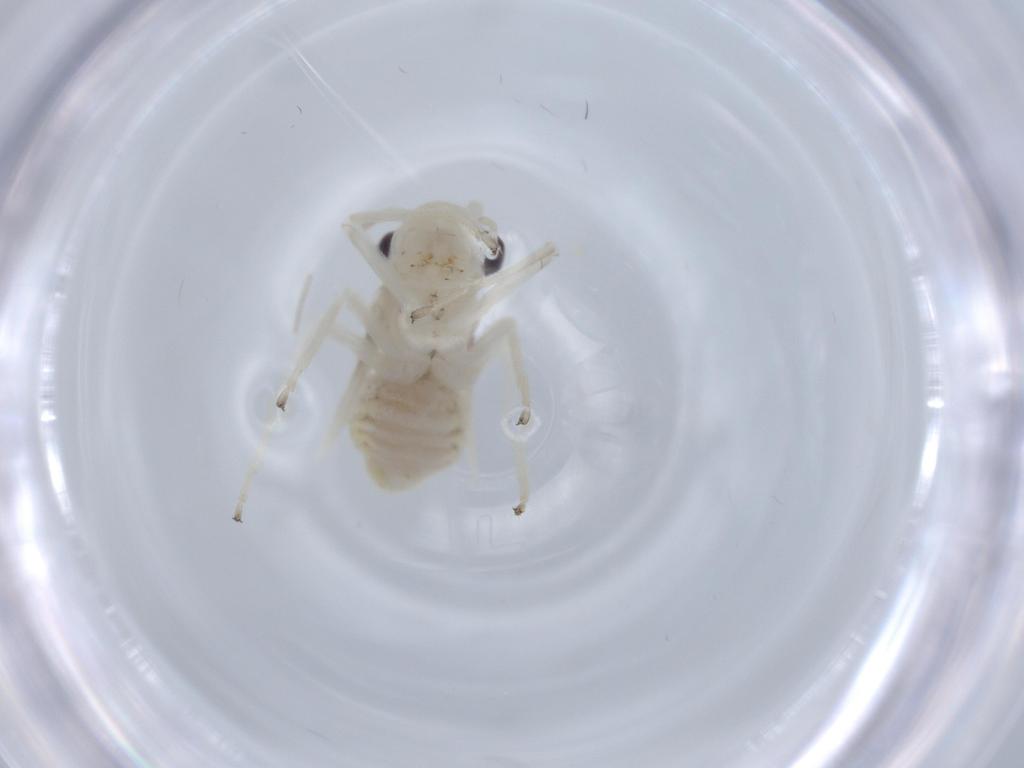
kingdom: Animalia
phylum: Arthropoda
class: Insecta
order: Psocodea
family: Stenopsocidae
